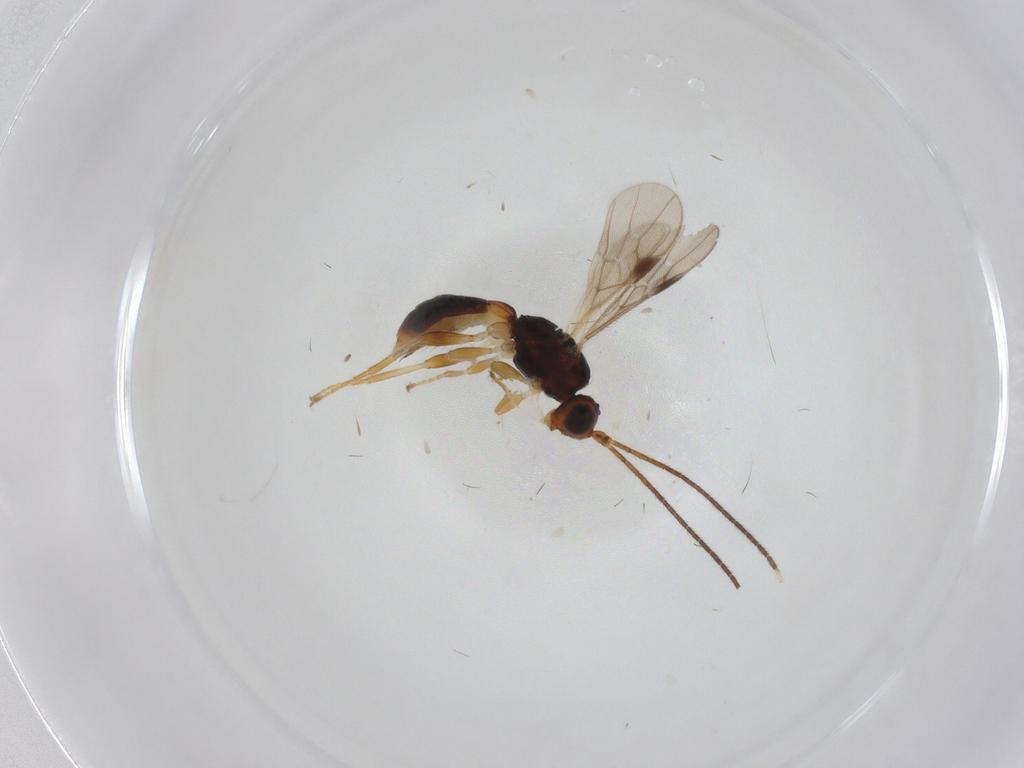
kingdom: Animalia
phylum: Arthropoda
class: Insecta
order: Hymenoptera
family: Braconidae
